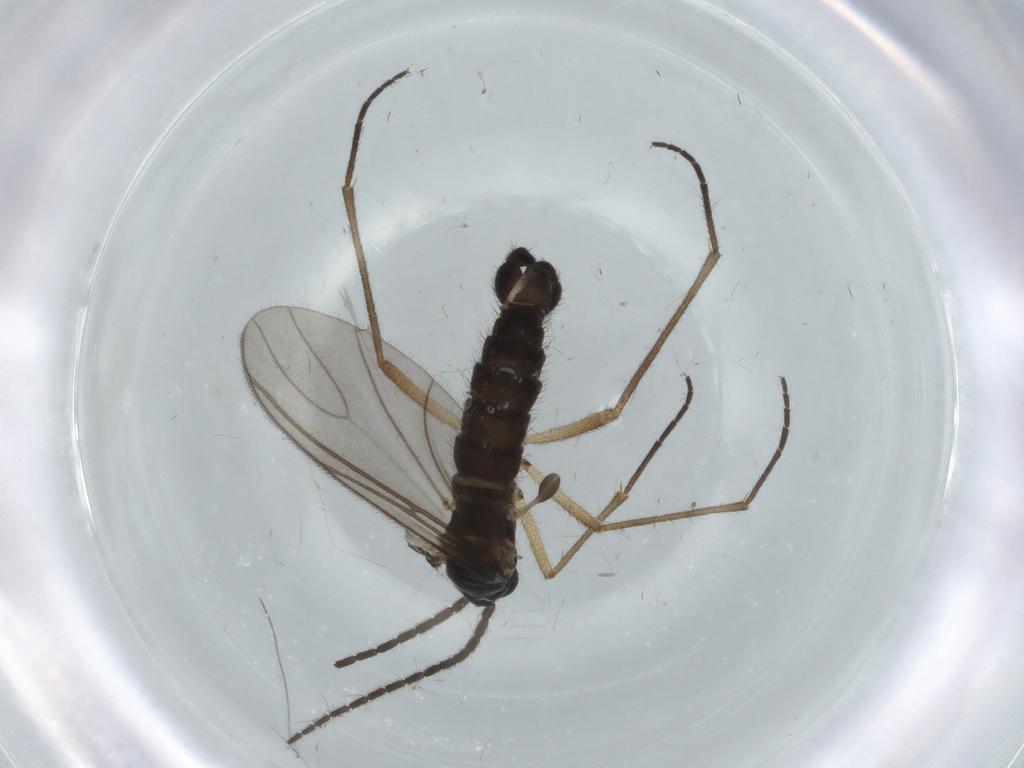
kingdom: Animalia
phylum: Arthropoda
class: Insecta
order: Diptera
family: Sciaridae
